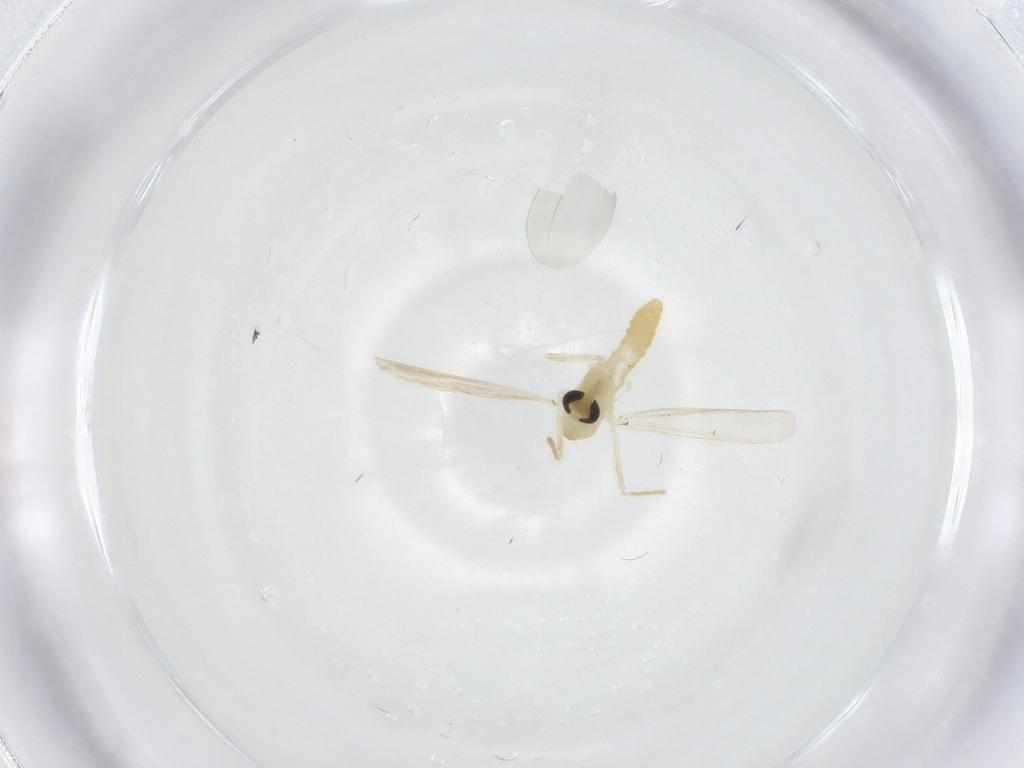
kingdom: Animalia
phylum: Arthropoda
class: Insecta
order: Diptera
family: Chironomidae
